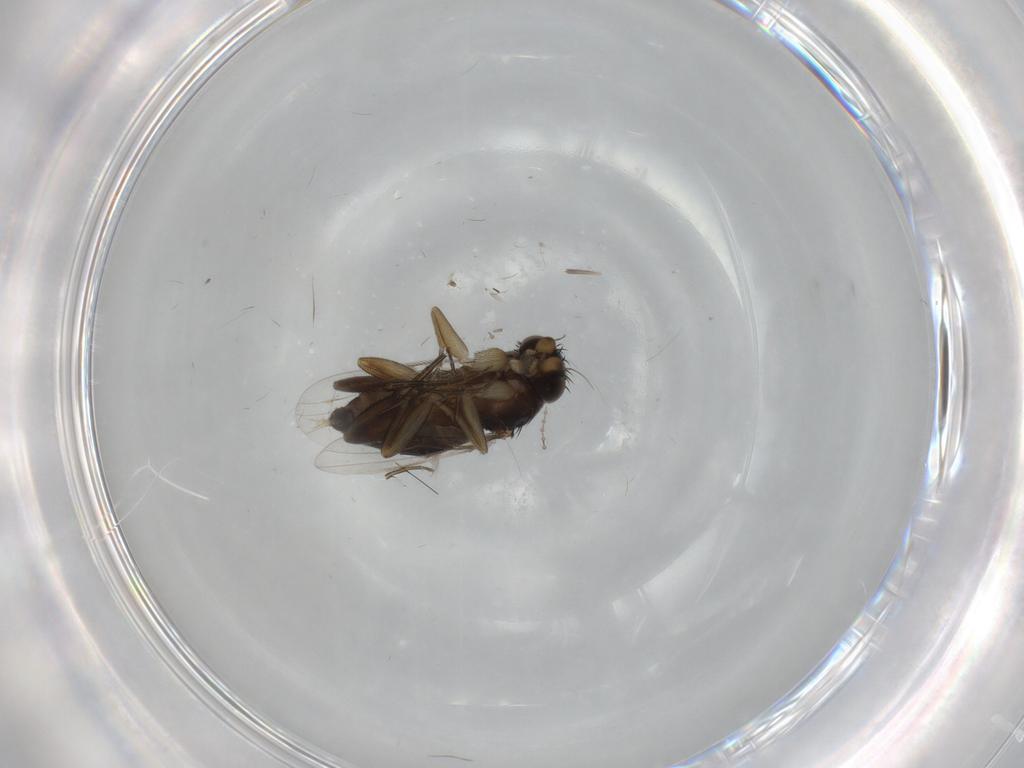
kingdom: Animalia
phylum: Arthropoda
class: Insecta
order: Diptera
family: Phoridae
